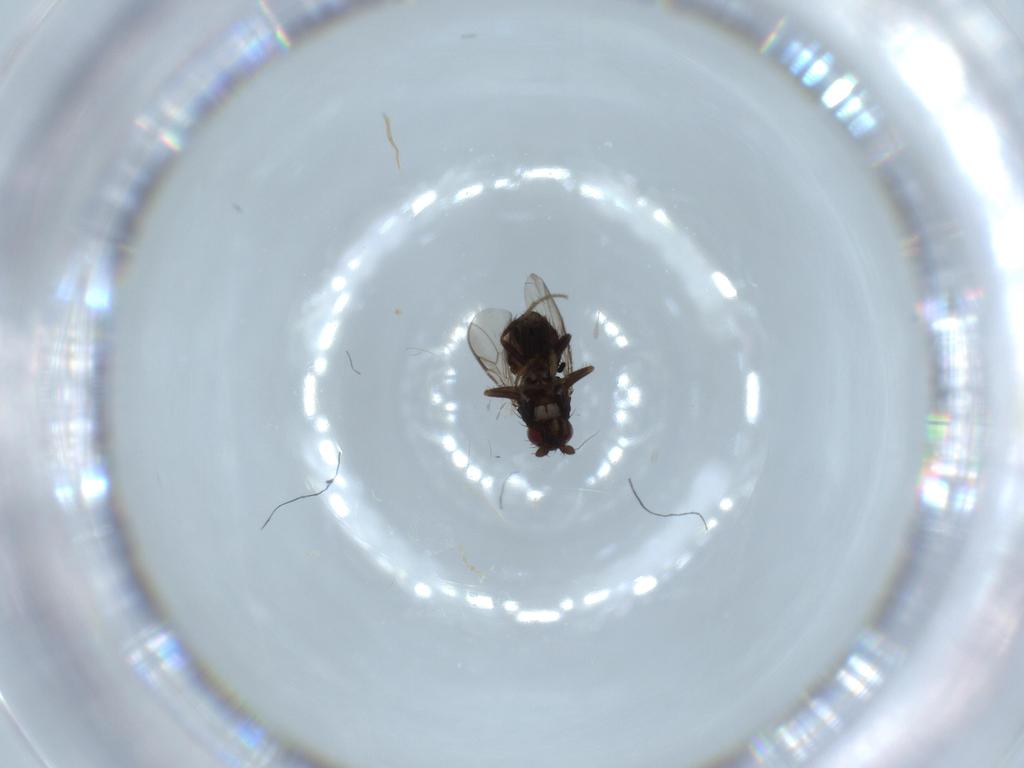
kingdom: Animalia
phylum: Arthropoda
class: Insecta
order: Diptera
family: Sphaeroceridae
